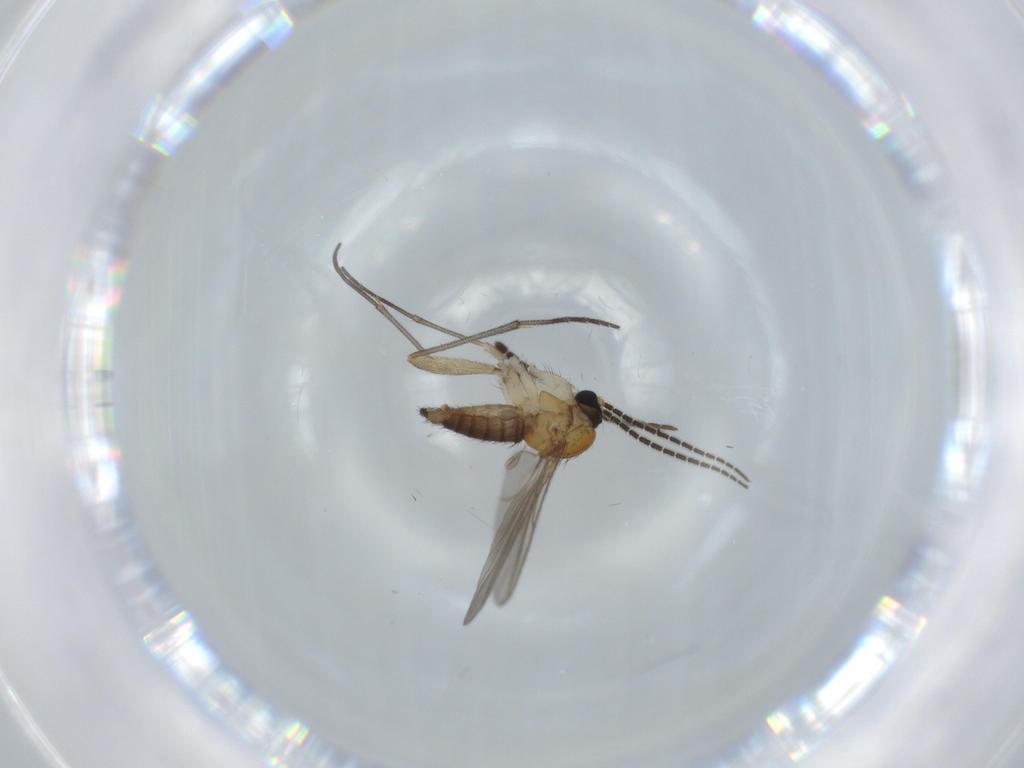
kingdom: Animalia
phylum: Arthropoda
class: Insecta
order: Diptera
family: Sciaridae
